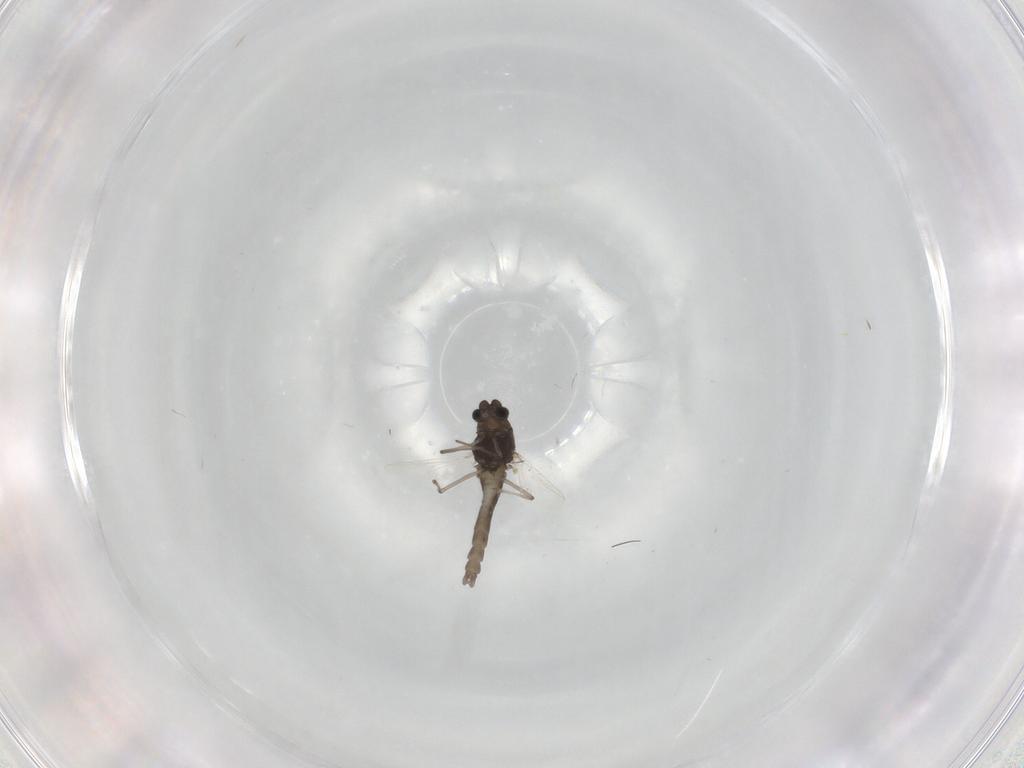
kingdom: Animalia
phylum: Arthropoda
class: Insecta
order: Diptera
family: Chironomidae
